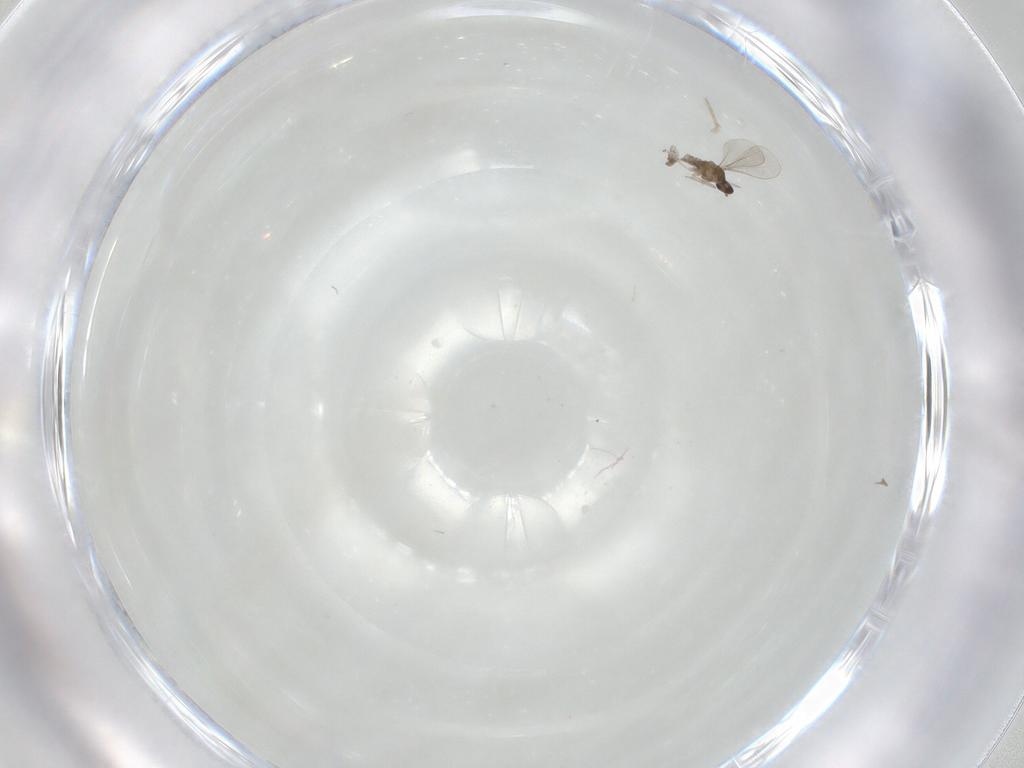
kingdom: Animalia
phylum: Arthropoda
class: Insecta
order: Diptera
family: Cecidomyiidae
